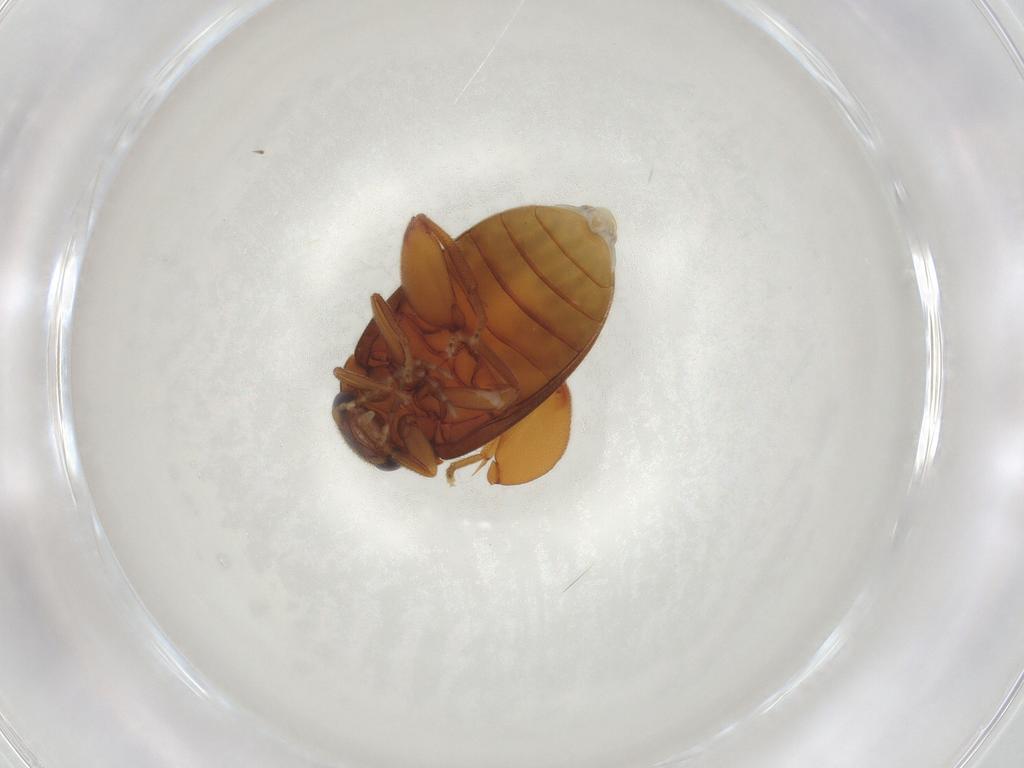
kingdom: Animalia
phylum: Arthropoda
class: Insecta
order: Coleoptera
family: Scirtidae
